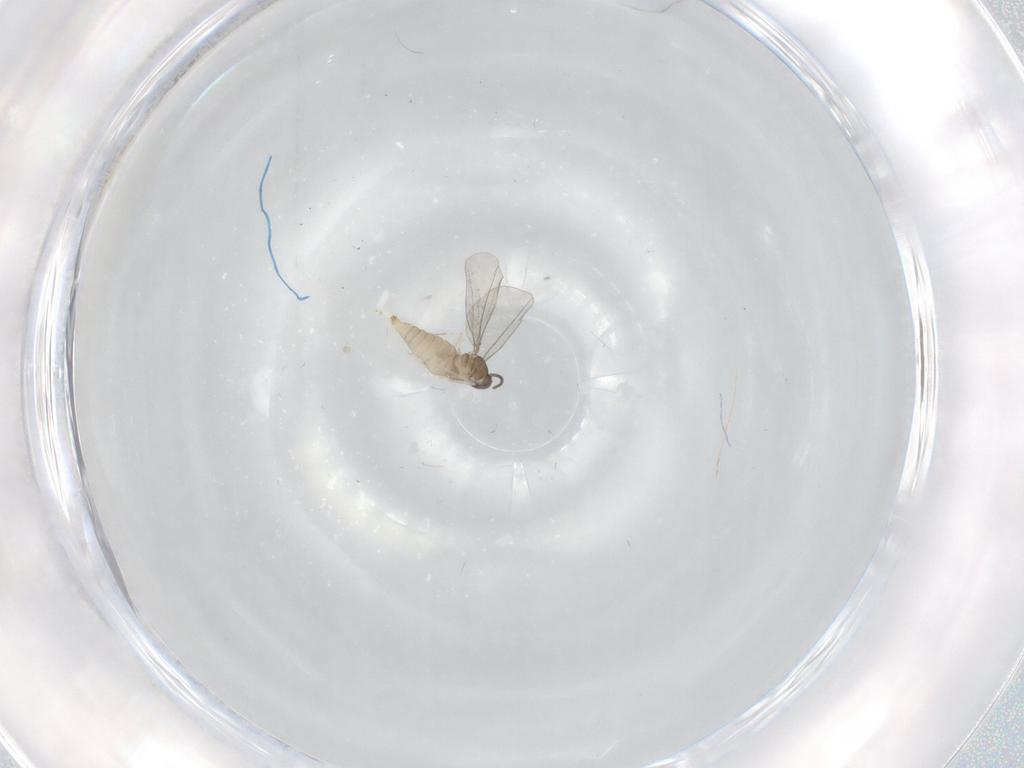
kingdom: Animalia
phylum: Arthropoda
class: Insecta
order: Diptera
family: Cecidomyiidae
